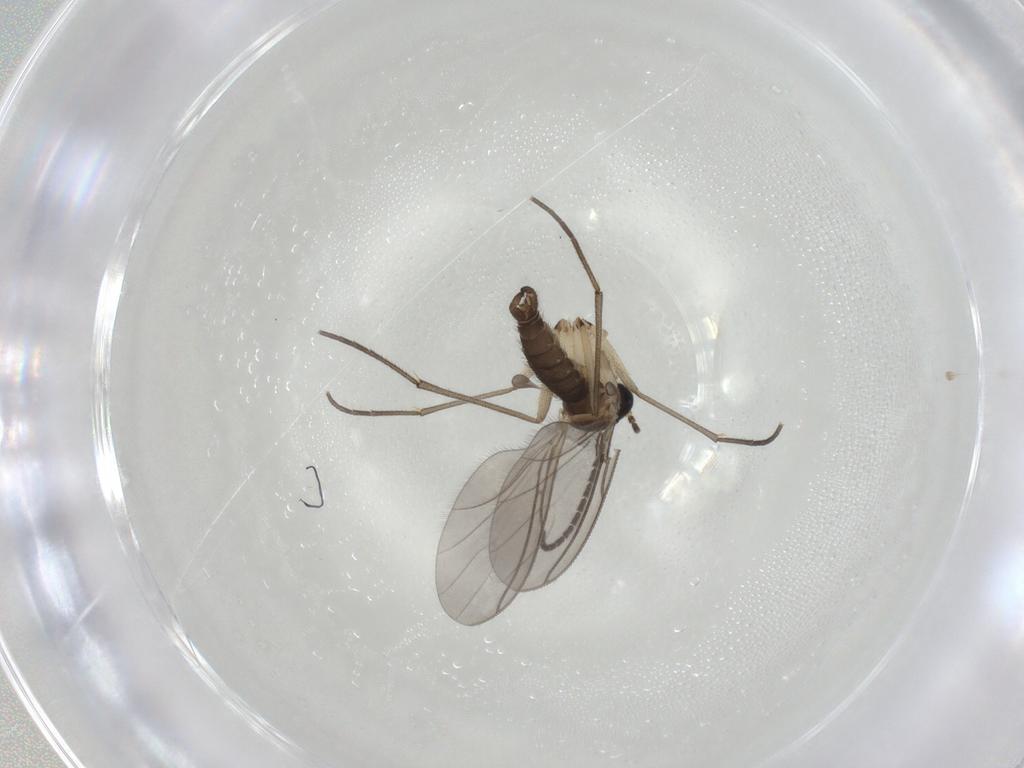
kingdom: Animalia
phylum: Arthropoda
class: Insecta
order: Diptera
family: Sciaridae
